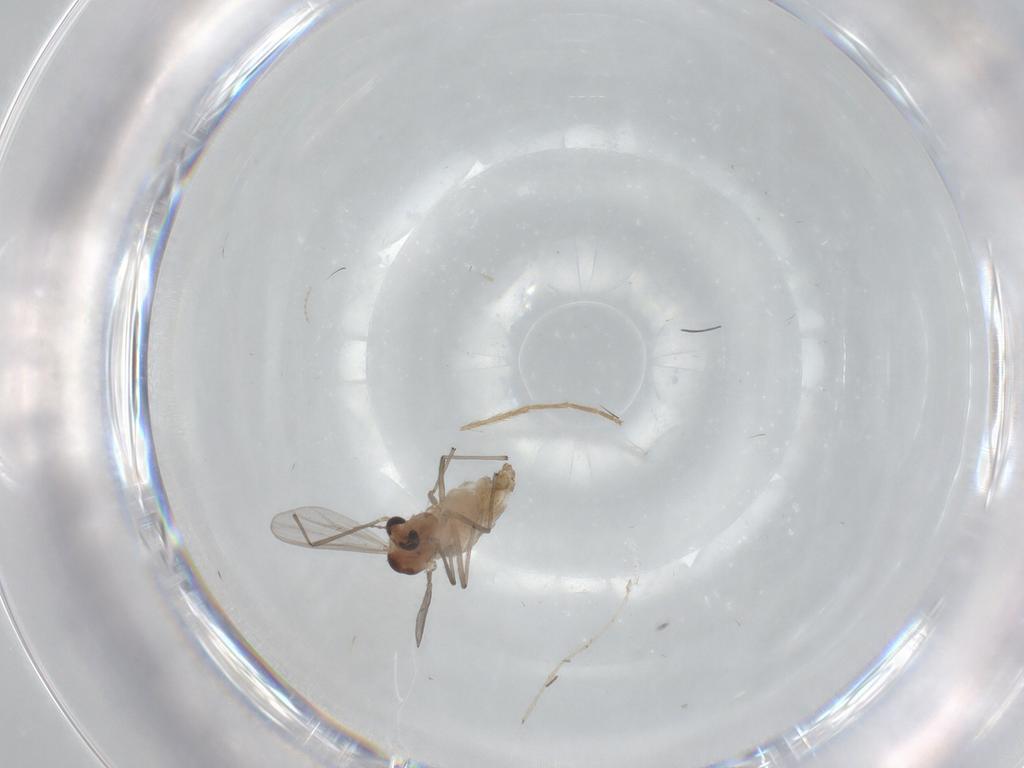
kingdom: Animalia
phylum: Arthropoda
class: Insecta
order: Diptera
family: Chironomidae
